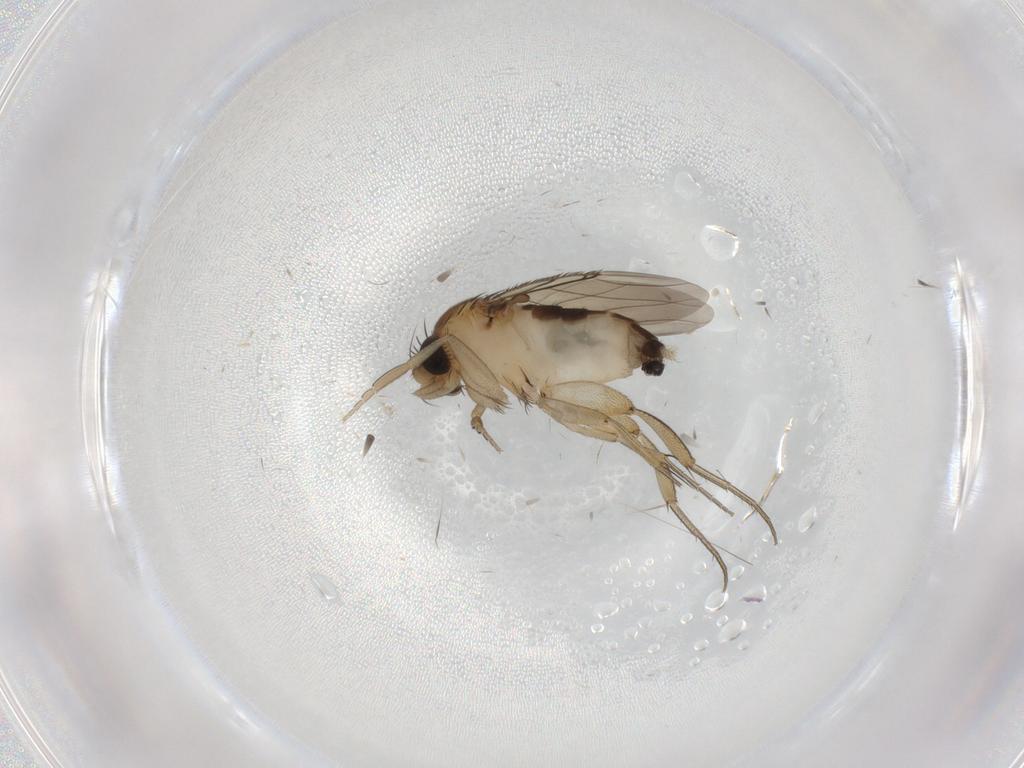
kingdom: Animalia
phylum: Arthropoda
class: Insecta
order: Diptera
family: Phoridae
